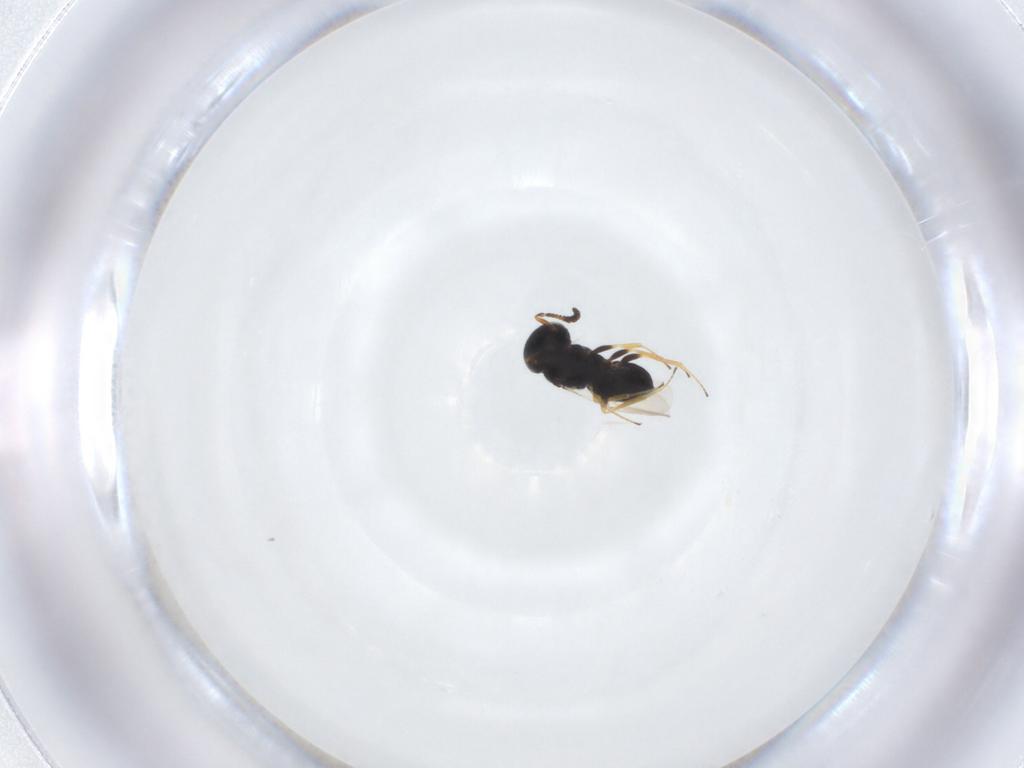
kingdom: Animalia
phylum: Arthropoda
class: Insecta
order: Hymenoptera
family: Scelionidae
